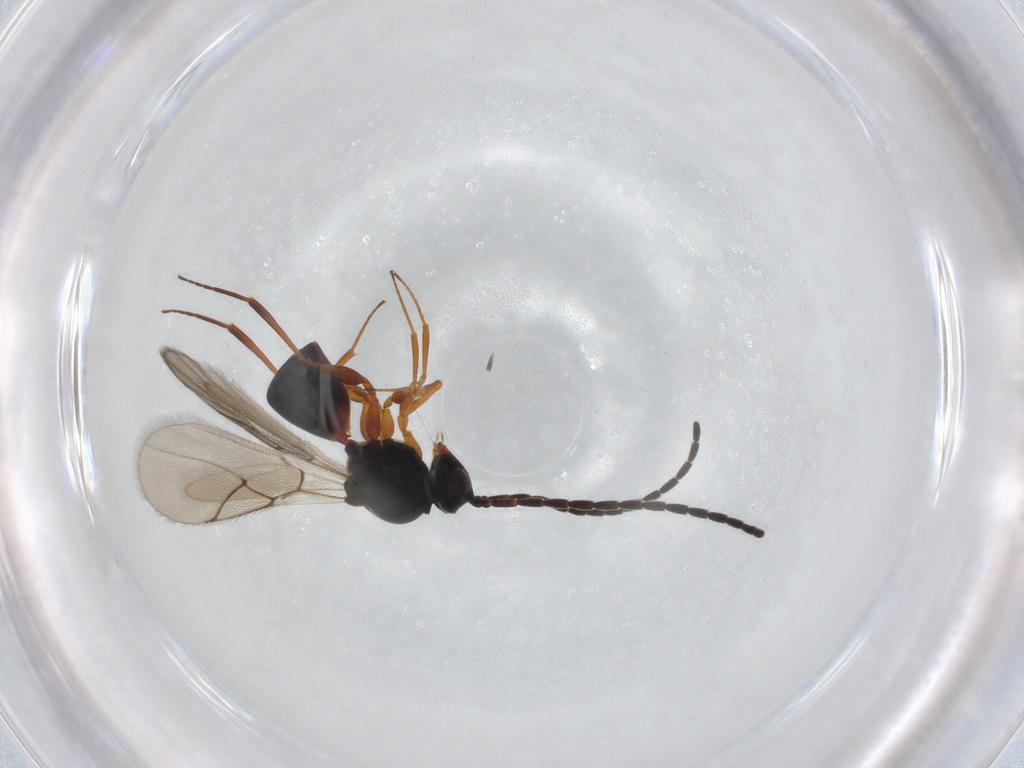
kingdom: Animalia
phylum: Arthropoda
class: Insecta
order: Hymenoptera
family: Figitidae
